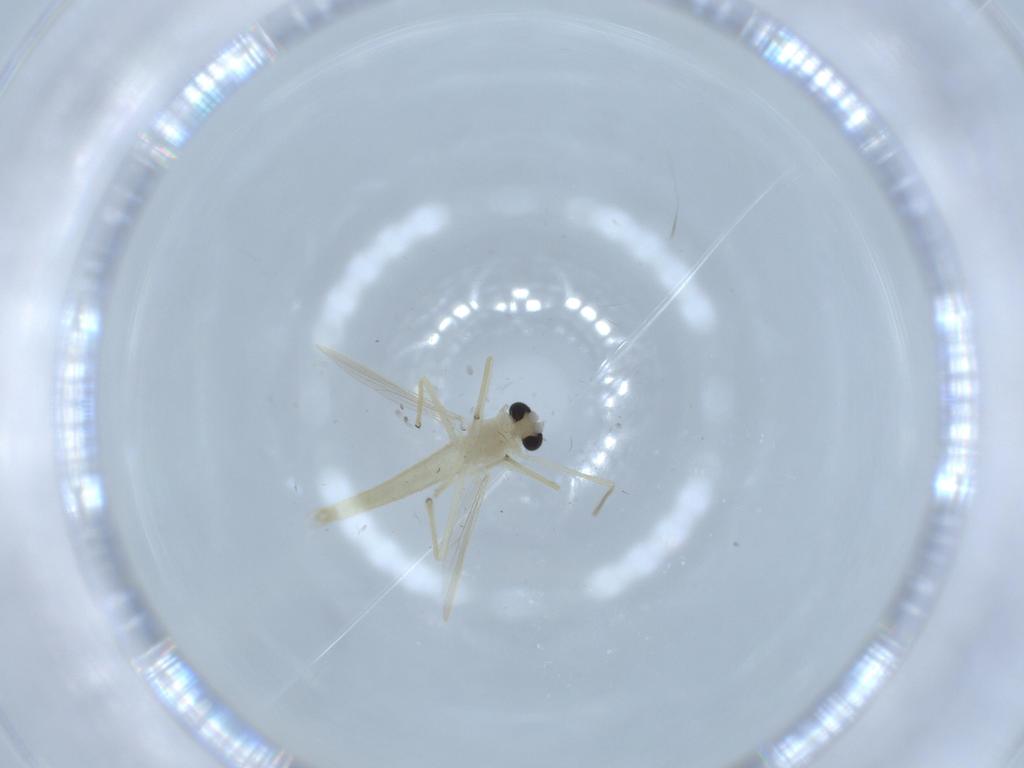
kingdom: Animalia
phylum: Arthropoda
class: Insecta
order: Diptera
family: Chironomidae
